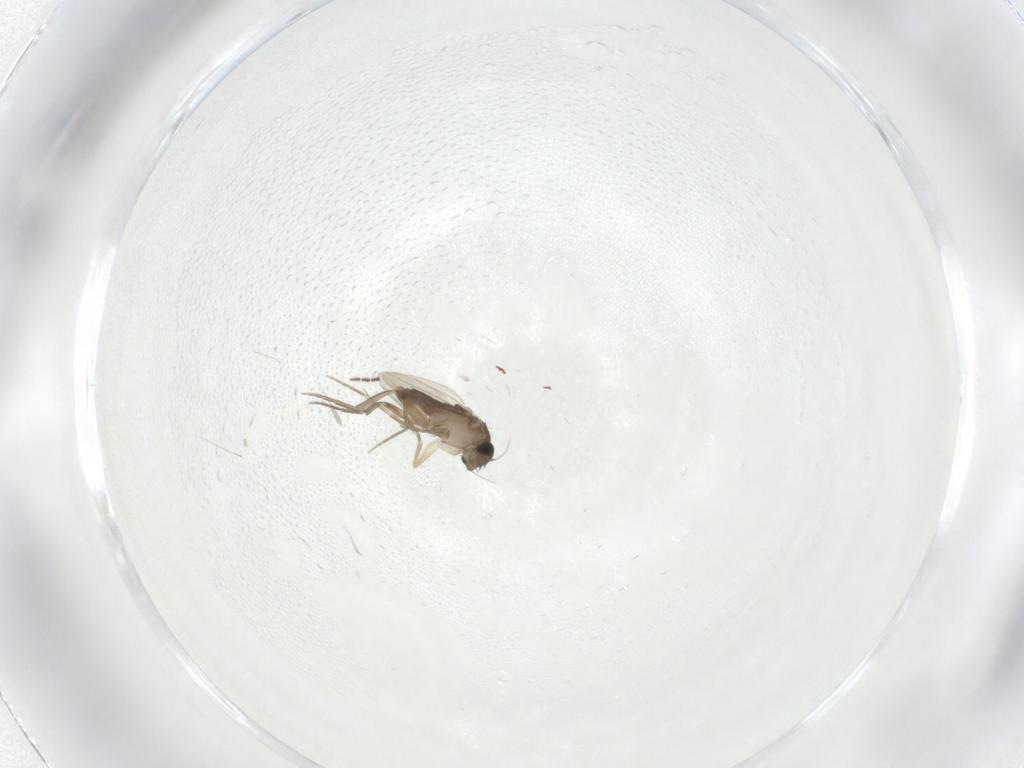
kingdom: Animalia
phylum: Arthropoda
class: Insecta
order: Diptera
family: Sciaridae
